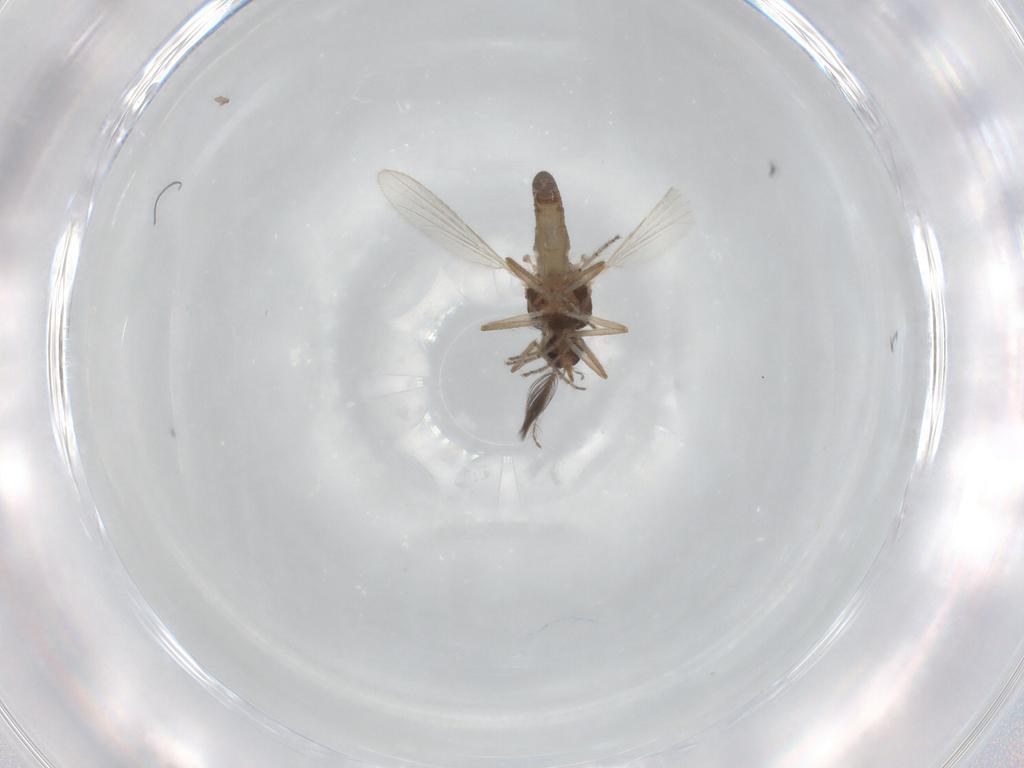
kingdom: Animalia
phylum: Arthropoda
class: Insecta
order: Diptera
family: Ceratopogonidae
